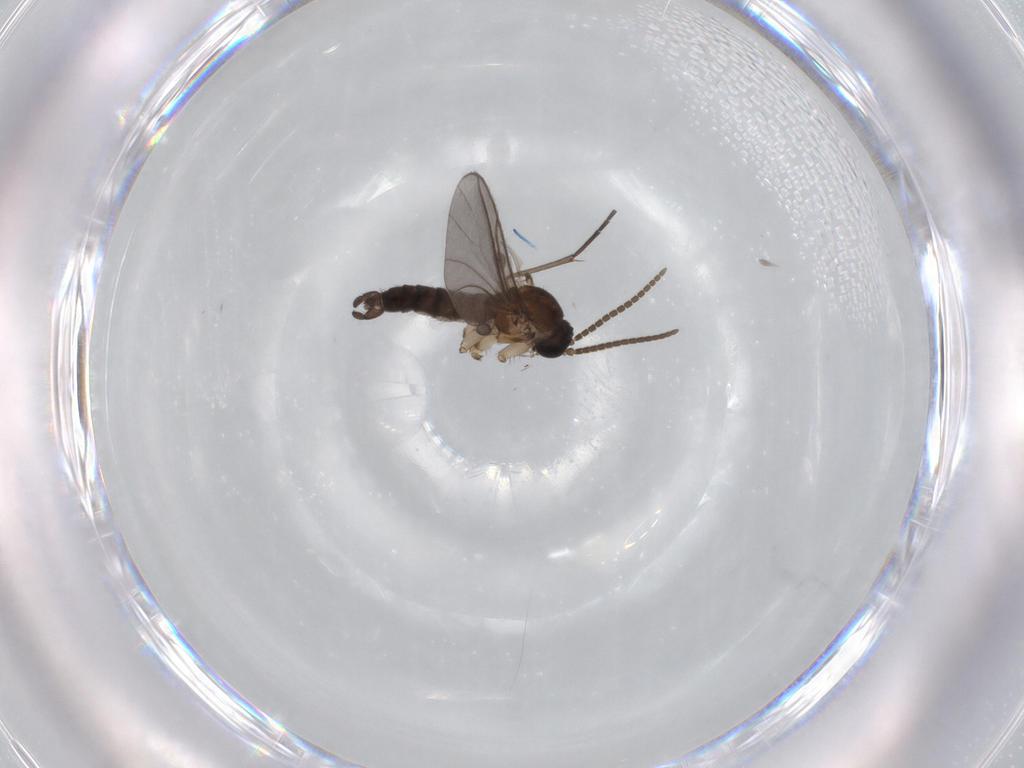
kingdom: Animalia
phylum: Arthropoda
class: Insecta
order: Diptera
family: Sciaridae
